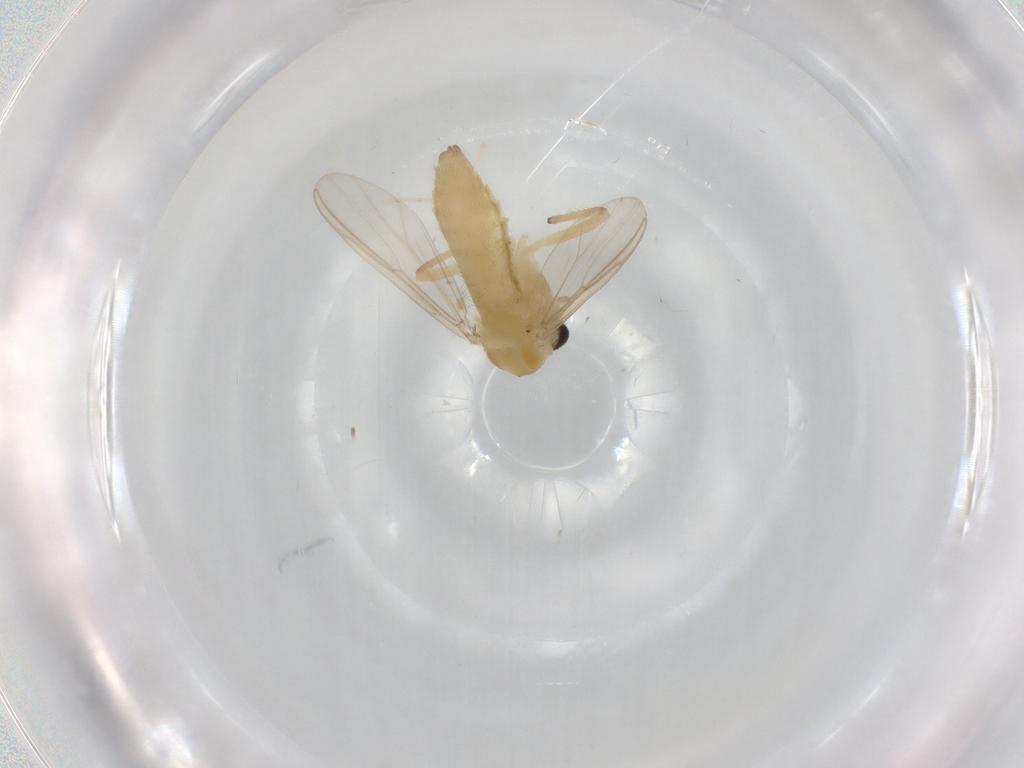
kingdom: Animalia
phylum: Arthropoda
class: Insecta
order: Diptera
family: Chironomidae
